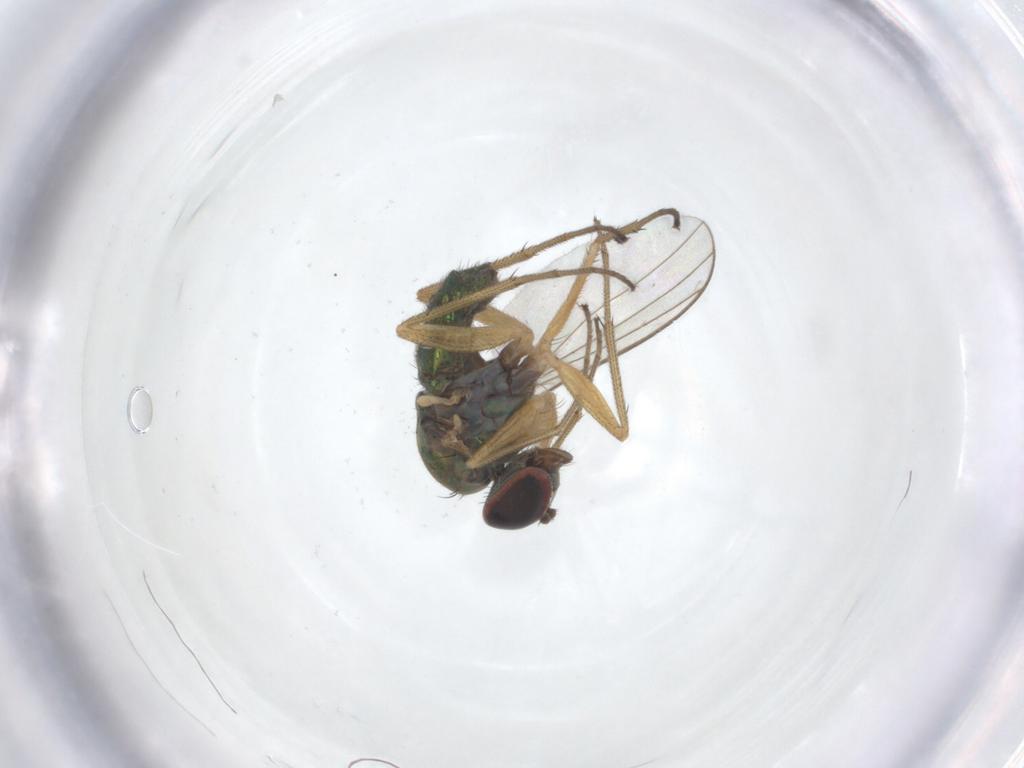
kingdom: Animalia
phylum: Arthropoda
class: Insecta
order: Diptera
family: Dolichopodidae
